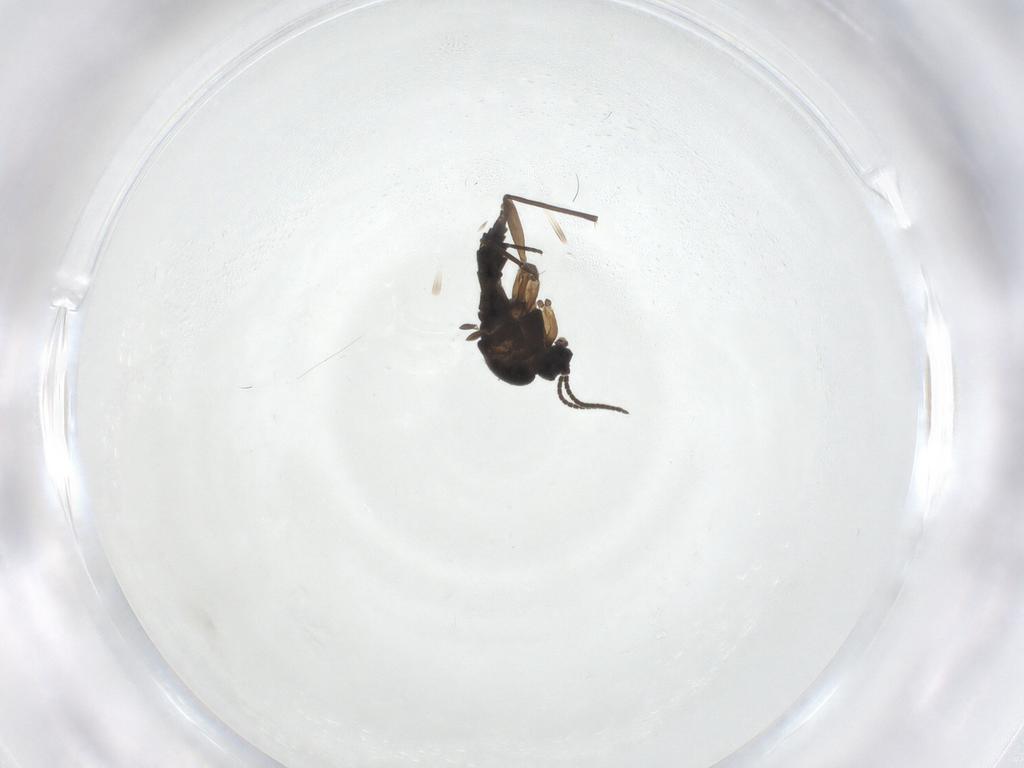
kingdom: Animalia
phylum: Arthropoda
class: Insecta
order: Diptera
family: Sciaridae
